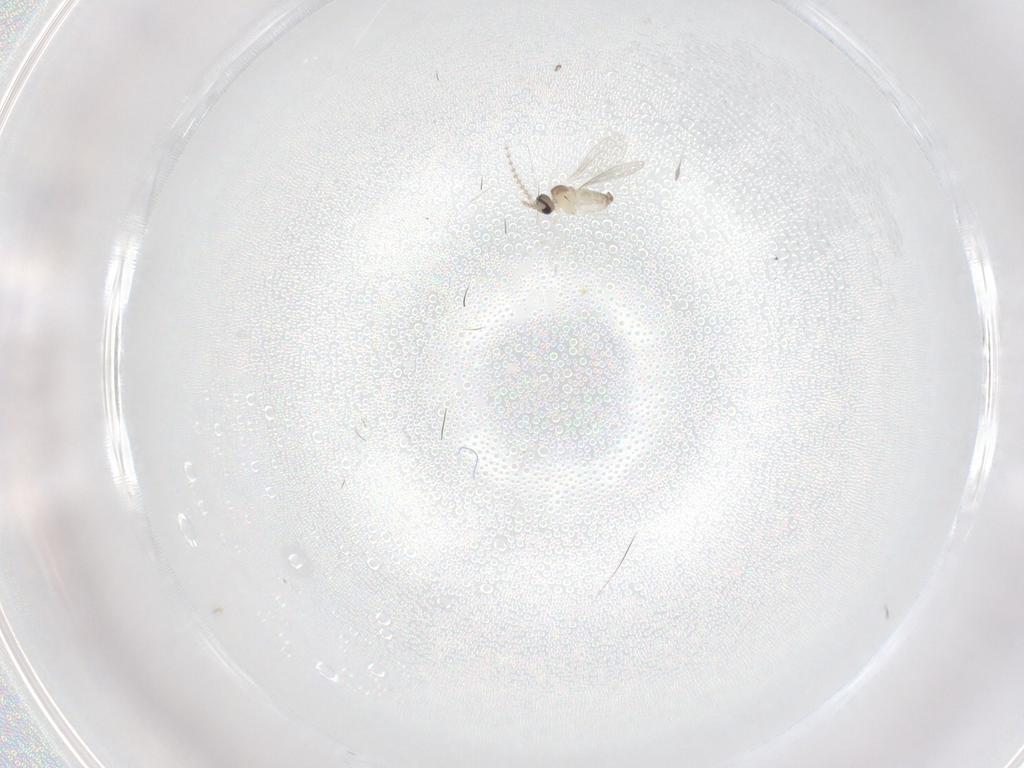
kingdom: Animalia
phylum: Arthropoda
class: Insecta
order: Diptera
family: Cecidomyiidae
